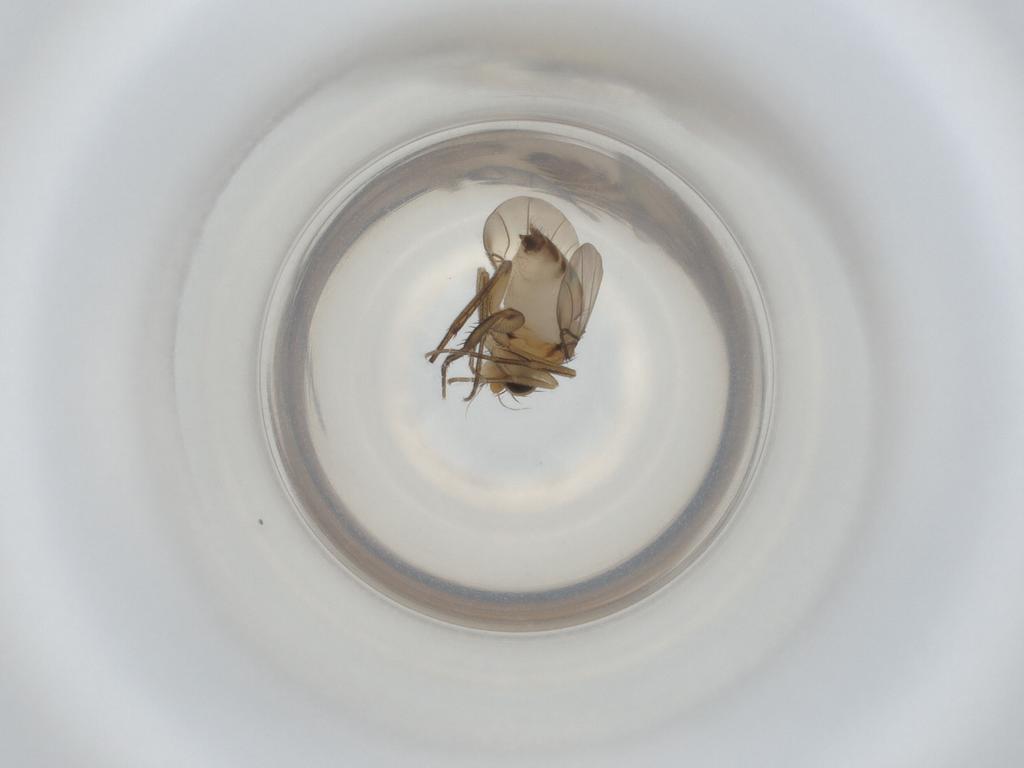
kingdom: Animalia
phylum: Arthropoda
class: Insecta
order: Diptera
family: Phoridae
